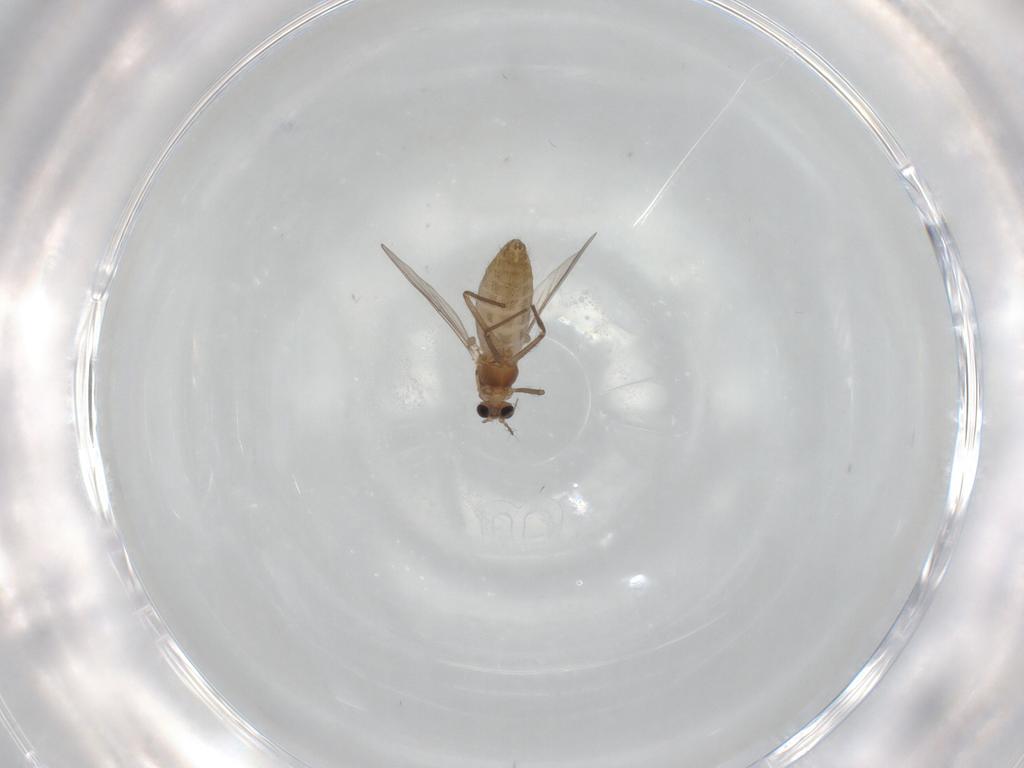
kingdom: Animalia
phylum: Arthropoda
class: Insecta
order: Diptera
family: Chironomidae
